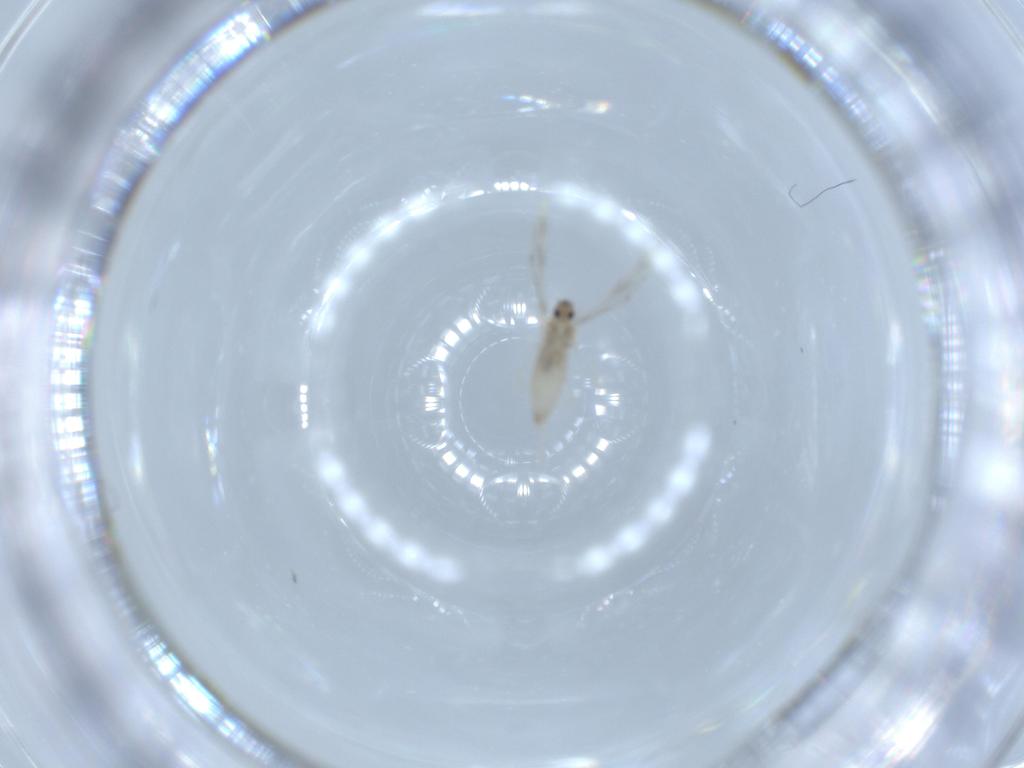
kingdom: Animalia
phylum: Arthropoda
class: Insecta
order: Diptera
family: Cecidomyiidae
